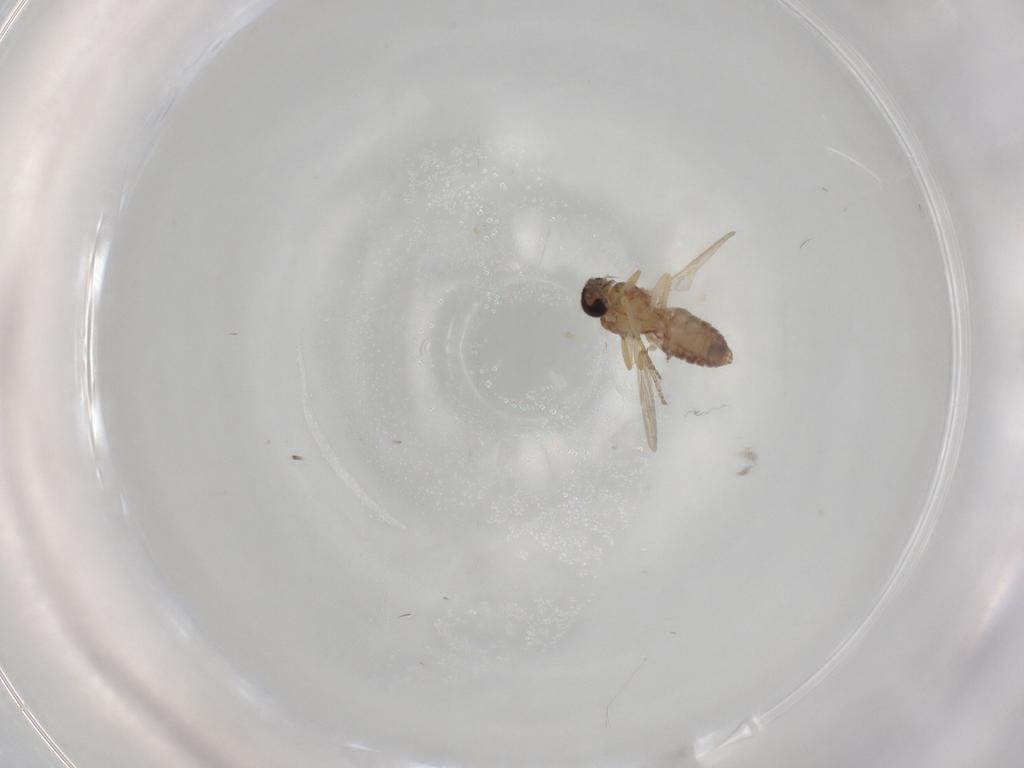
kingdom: Animalia
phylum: Arthropoda
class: Insecta
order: Diptera
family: Ceratopogonidae
